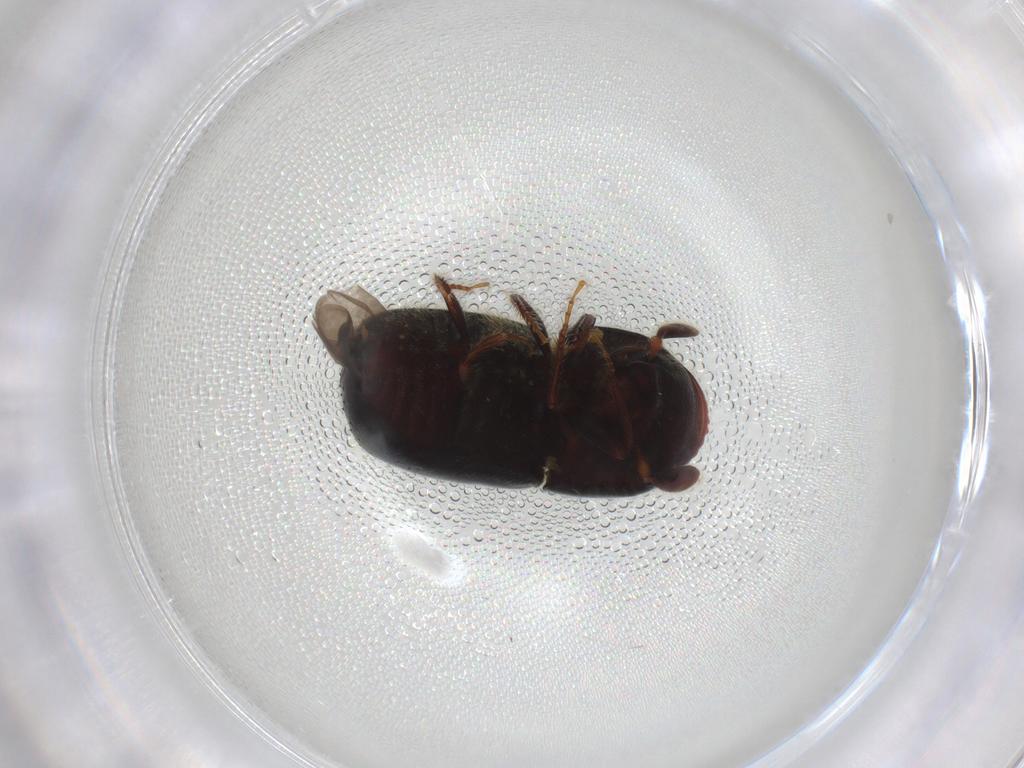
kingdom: Animalia
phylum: Arthropoda
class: Insecta
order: Coleoptera
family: Curculionidae
